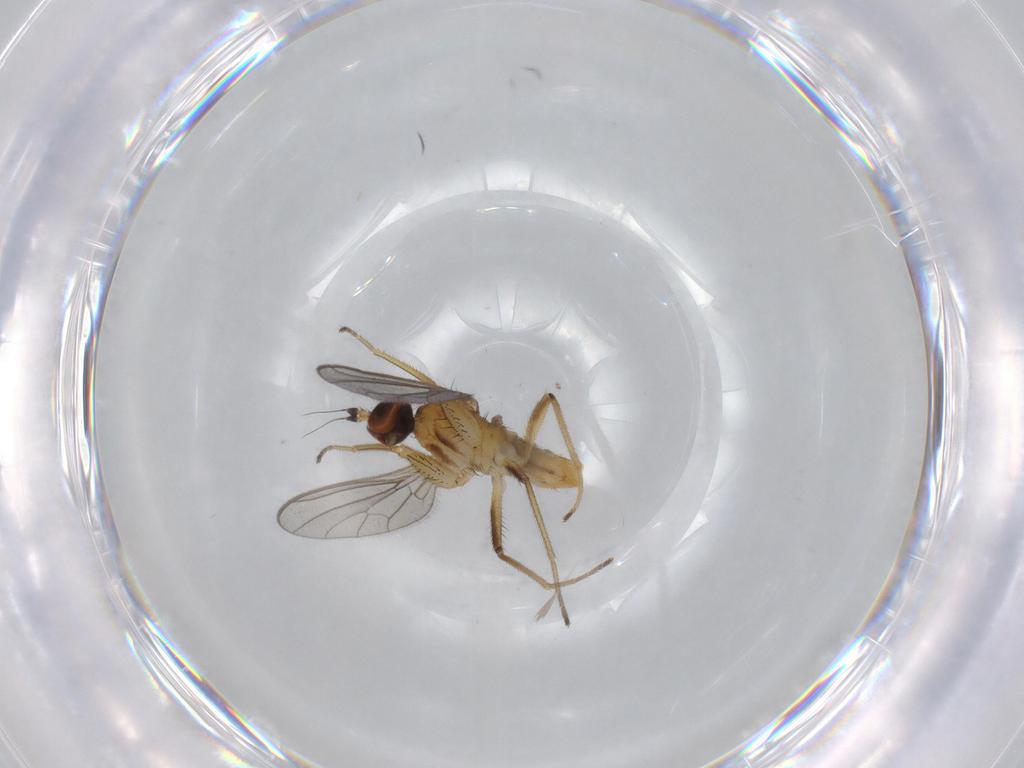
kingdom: Animalia
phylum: Arthropoda
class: Insecta
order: Diptera
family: Empididae
